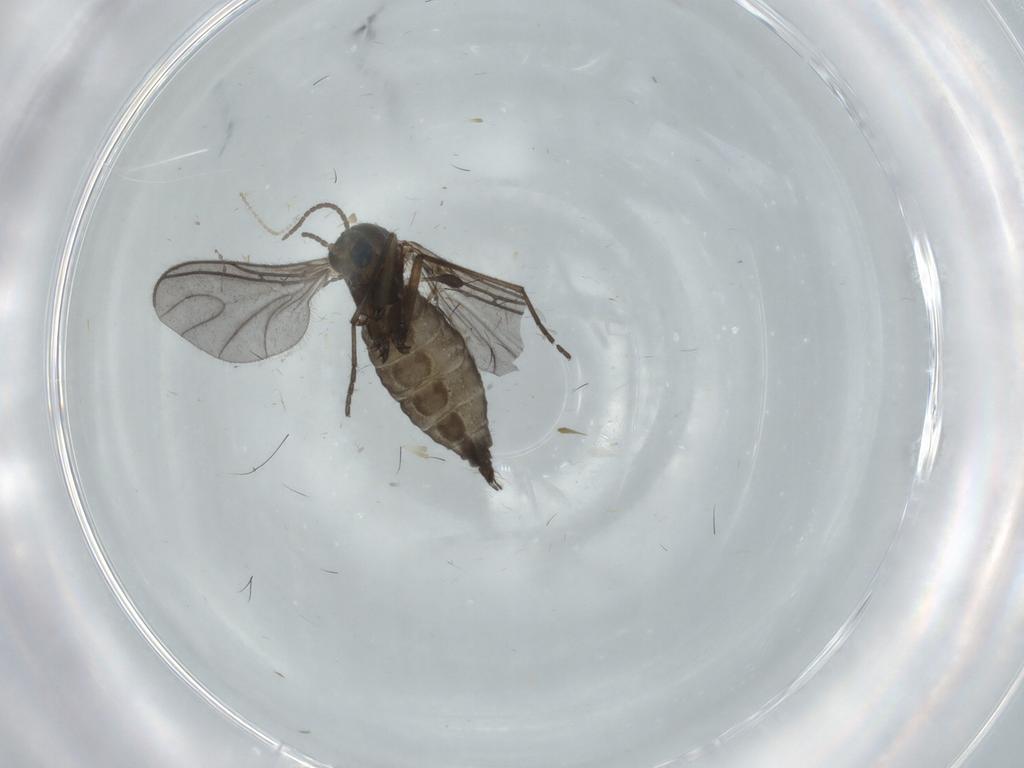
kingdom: Animalia
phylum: Arthropoda
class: Insecta
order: Diptera
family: Sciaridae
